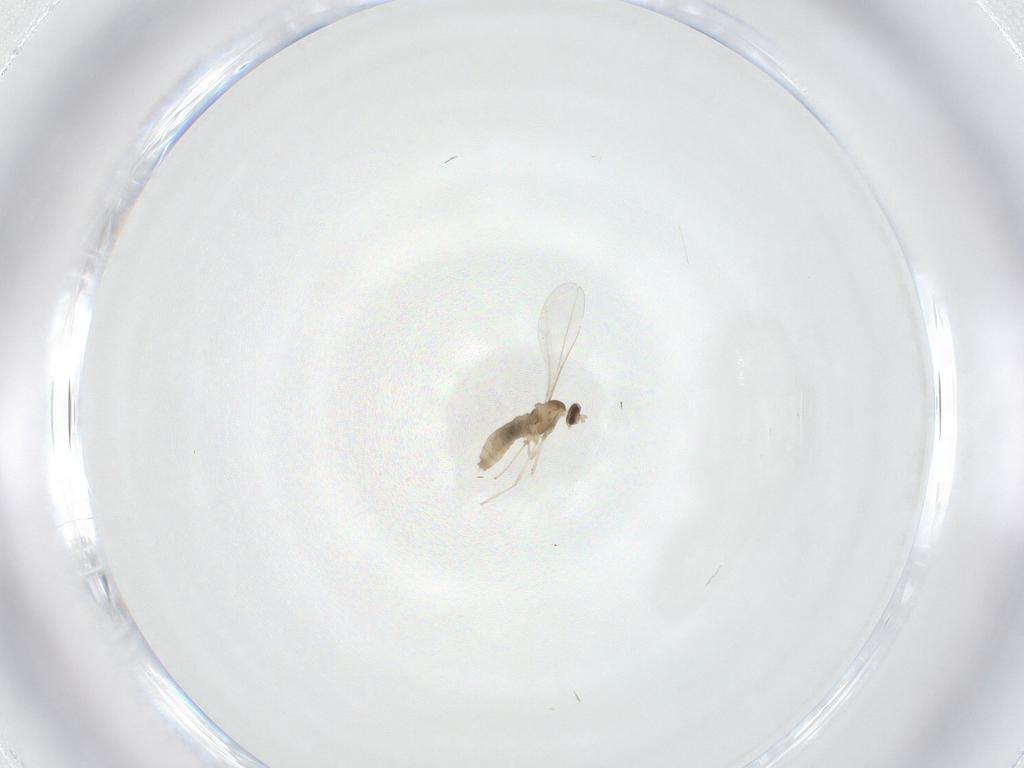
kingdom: Animalia
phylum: Arthropoda
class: Insecta
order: Diptera
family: Cecidomyiidae
